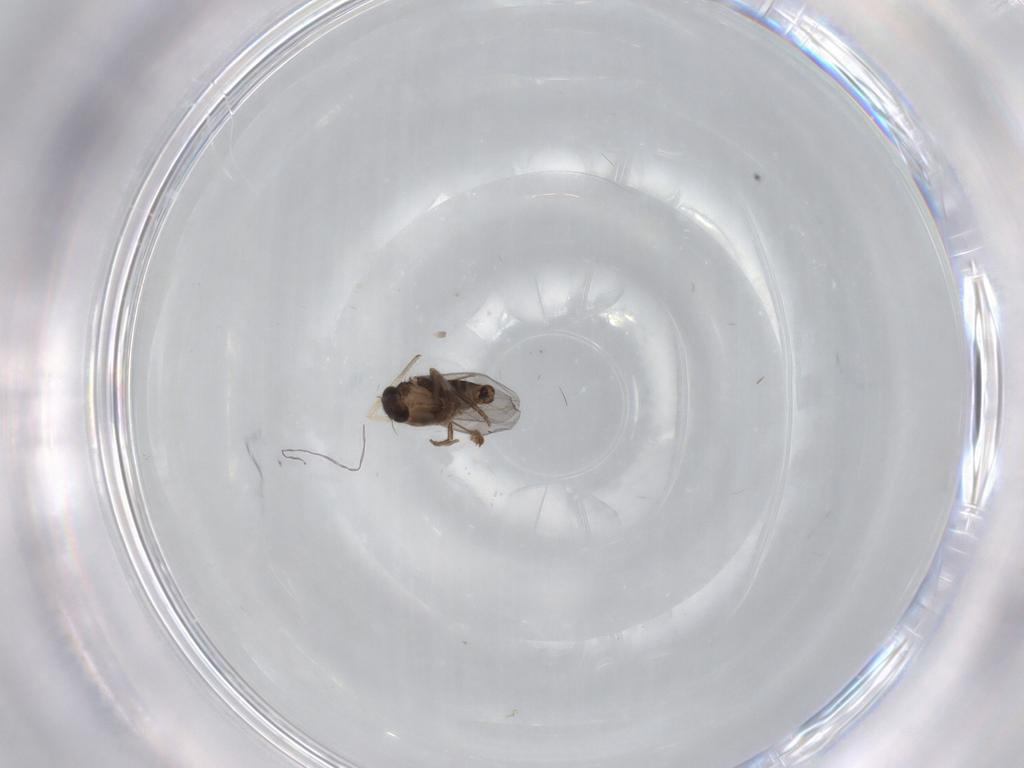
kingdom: Animalia
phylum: Arthropoda
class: Insecta
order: Diptera
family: Chironomidae
